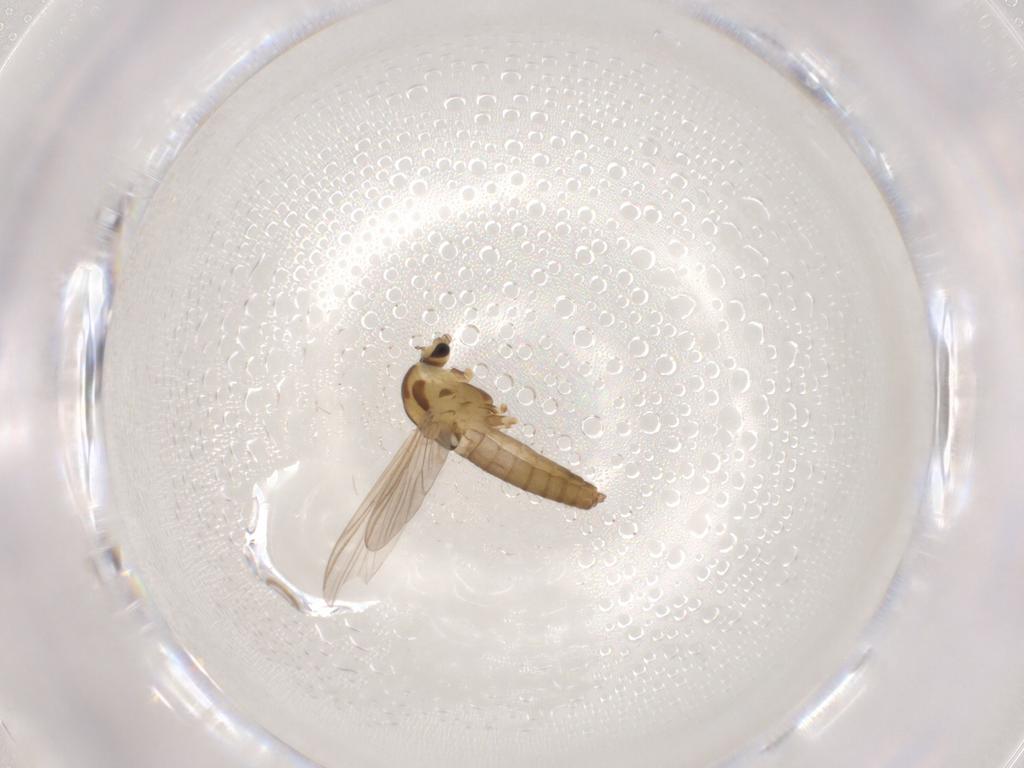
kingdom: Animalia
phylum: Arthropoda
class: Insecta
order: Diptera
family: Chironomidae
